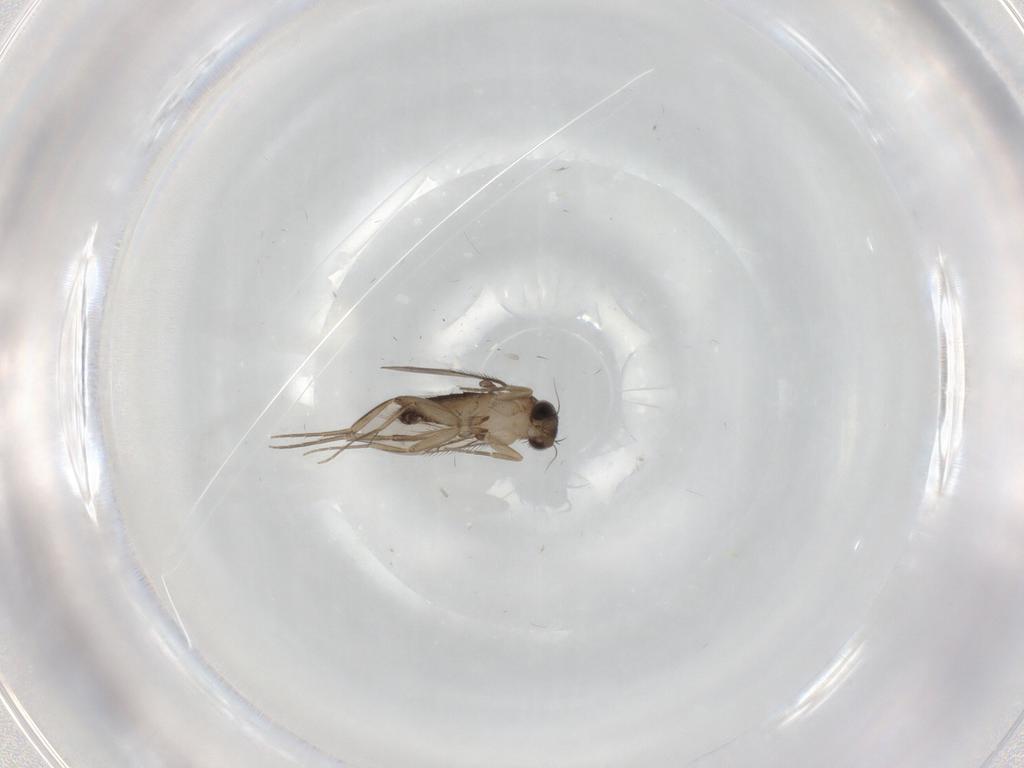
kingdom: Animalia
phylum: Arthropoda
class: Insecta
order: Diptera
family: Phoridae
